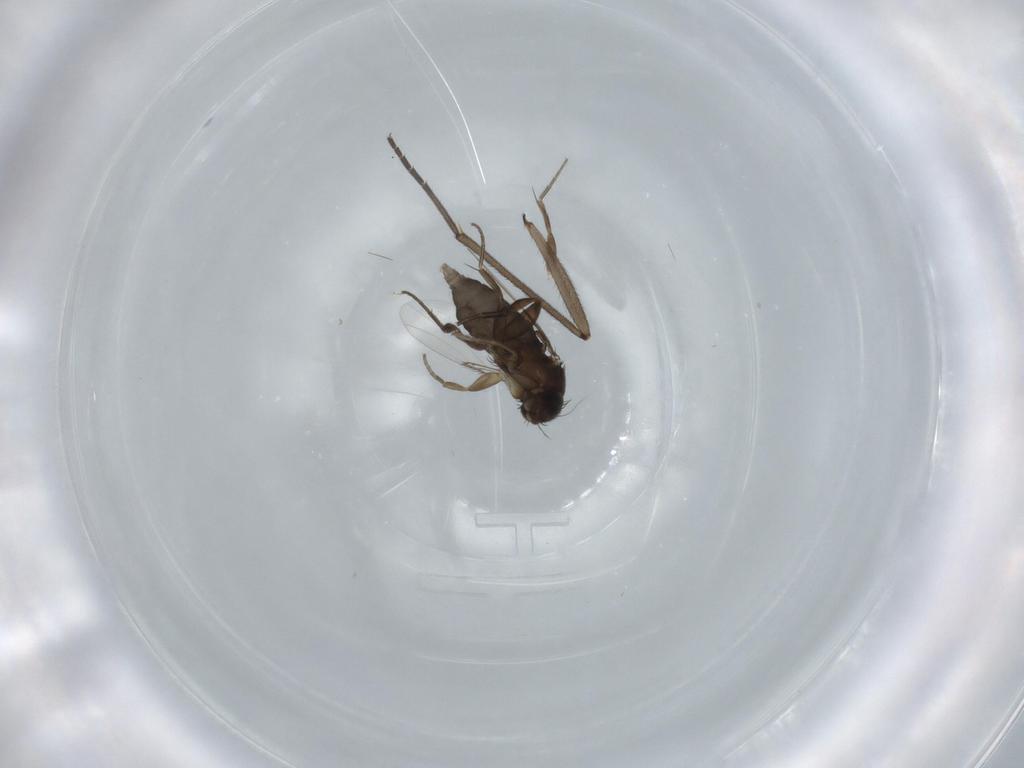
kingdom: Animalia
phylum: Arthropoda
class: Insecta
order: Diptera
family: Phoridae
